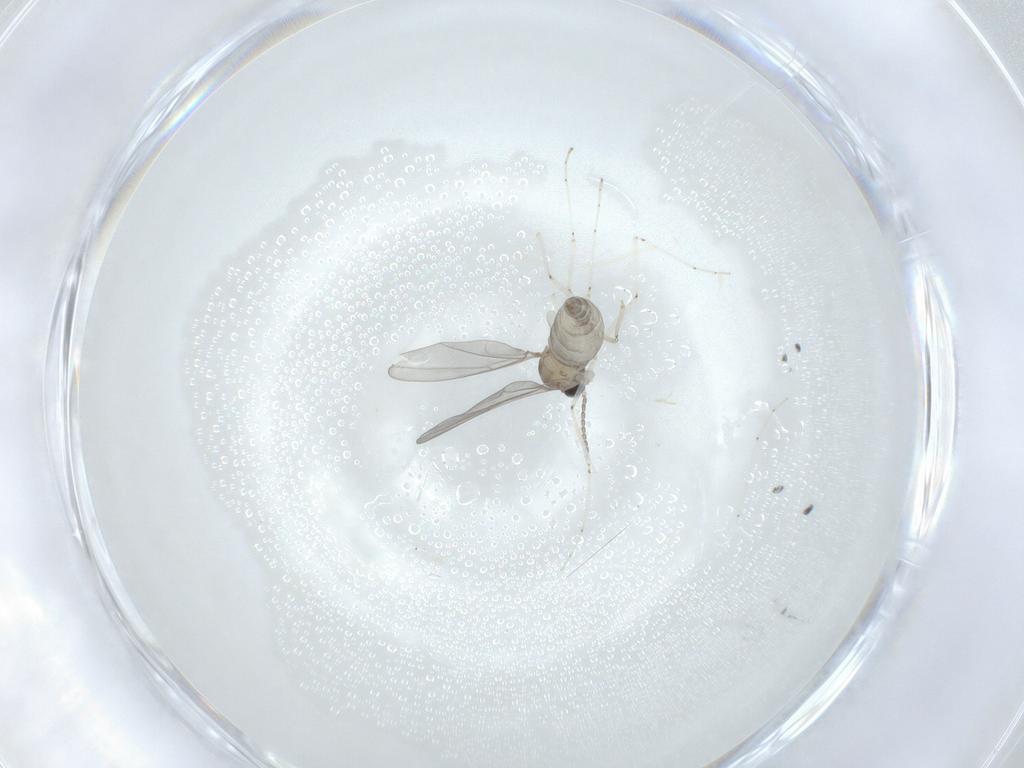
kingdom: Animalia
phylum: Arthropoda
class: Insecta
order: Diptera
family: Cecidomyiidae
